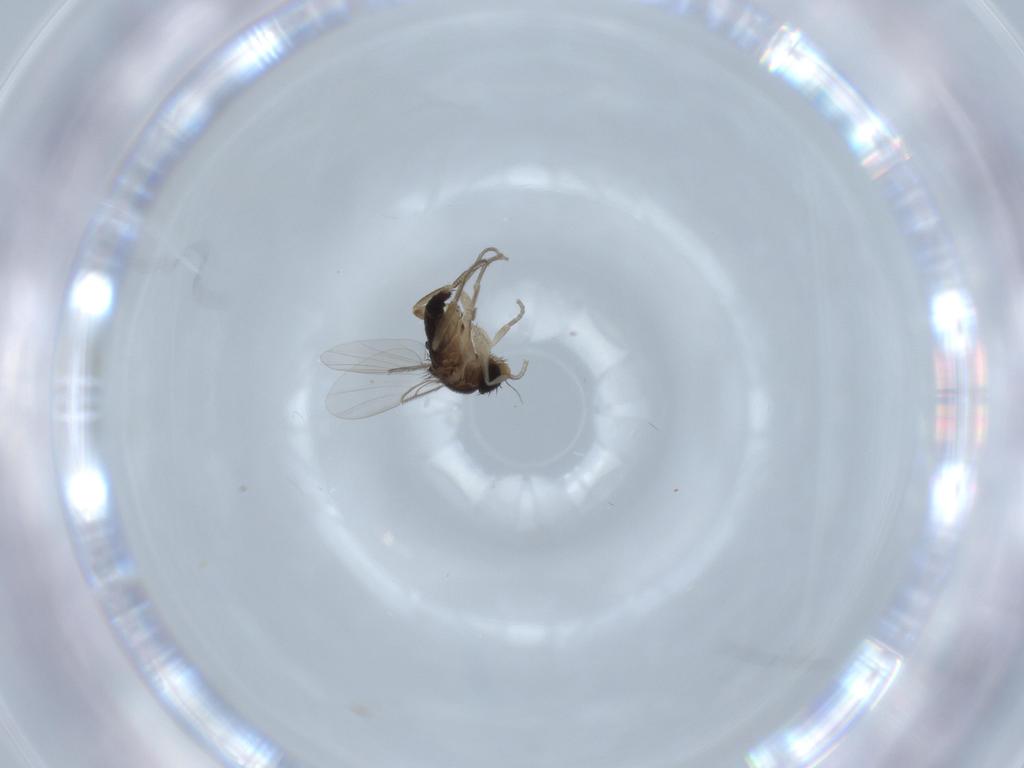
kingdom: Animalia
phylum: Arthropoda
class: Insecta
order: Diptera
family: Phoridae
